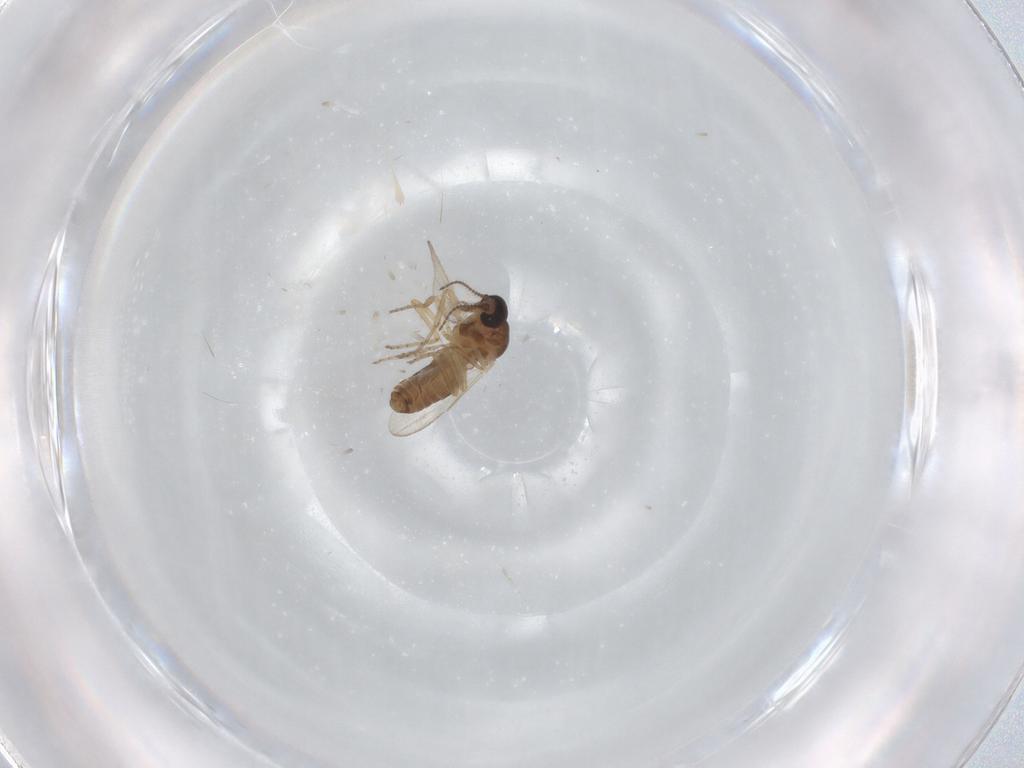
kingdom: Animalia
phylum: Arthropoda
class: Insecta
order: Diptera
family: Ceratopogonidae
